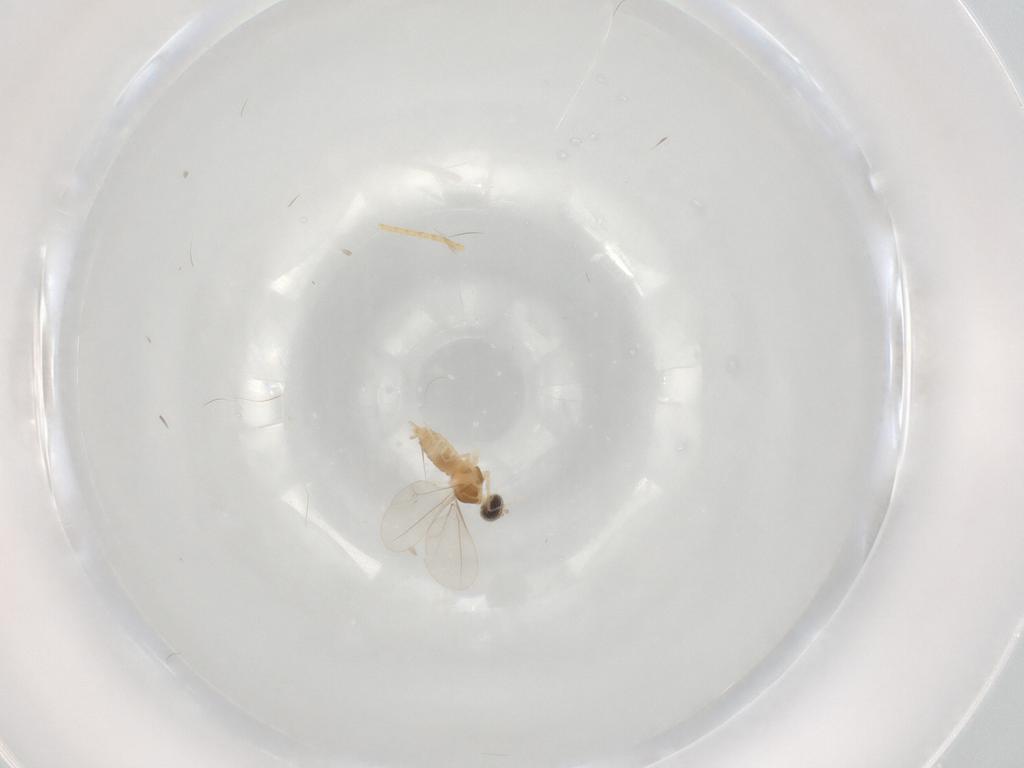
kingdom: Animalia
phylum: Arthropoda
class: Insecta
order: Diptera
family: Cecidomyiidae
